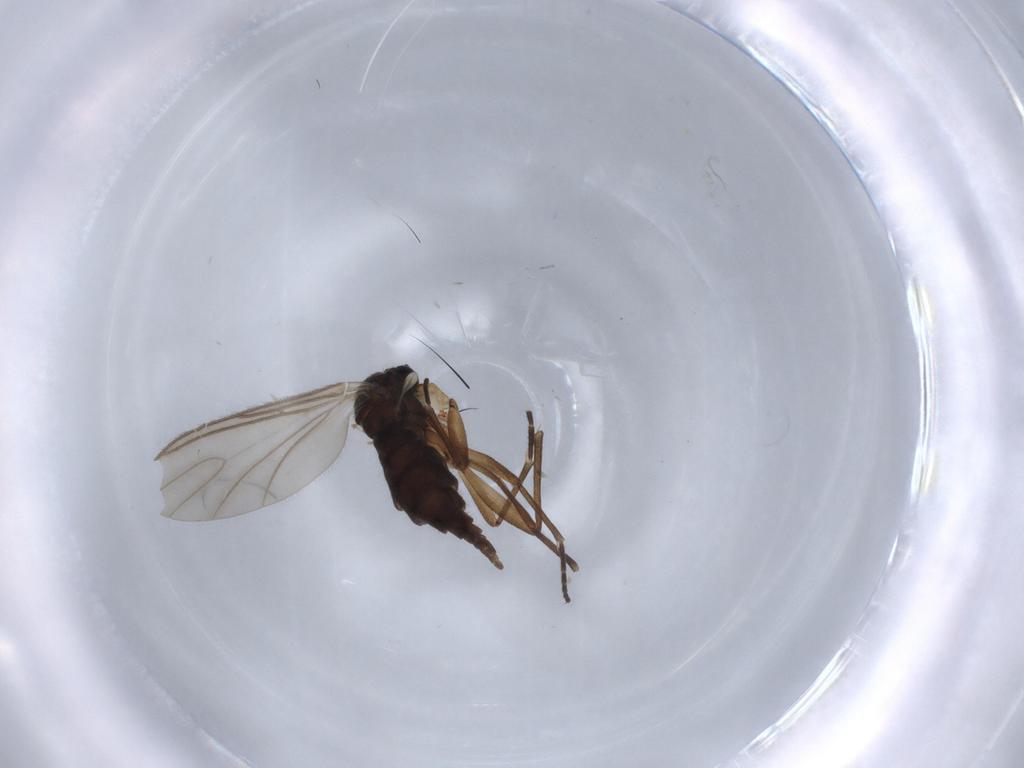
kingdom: Animalia
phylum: Arthropoda
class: Insecta
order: Diptera
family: Sciaridae
